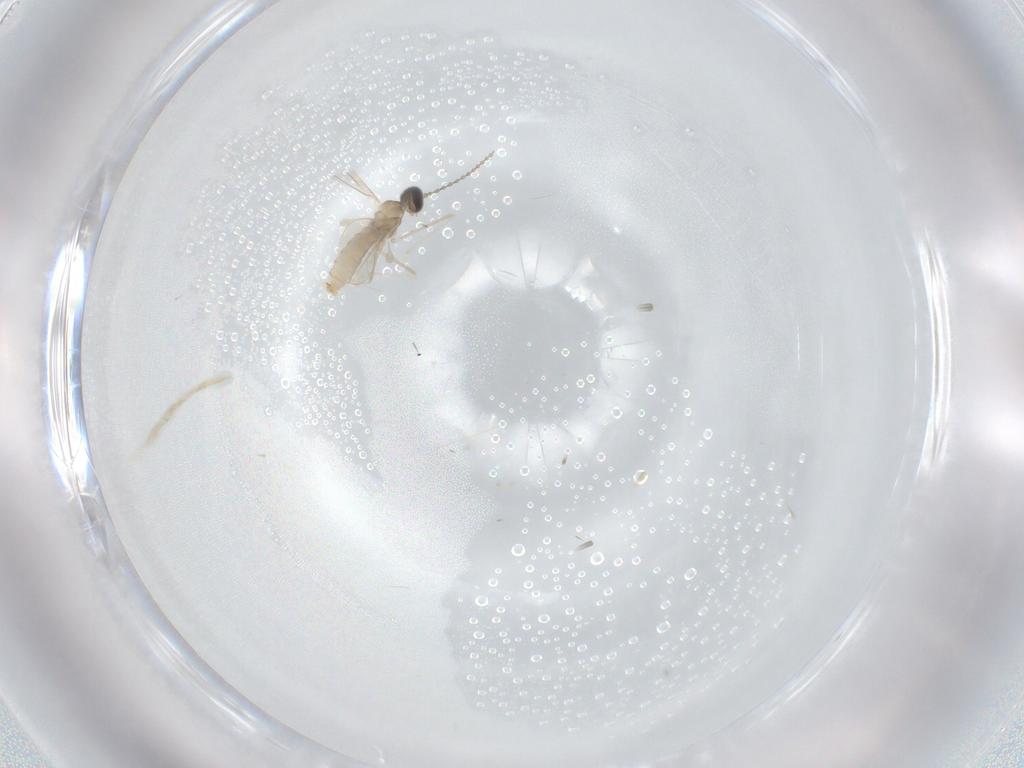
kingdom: Animalia
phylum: Arthropoda
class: Insecta
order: Diptera
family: Cecidomyiidae
